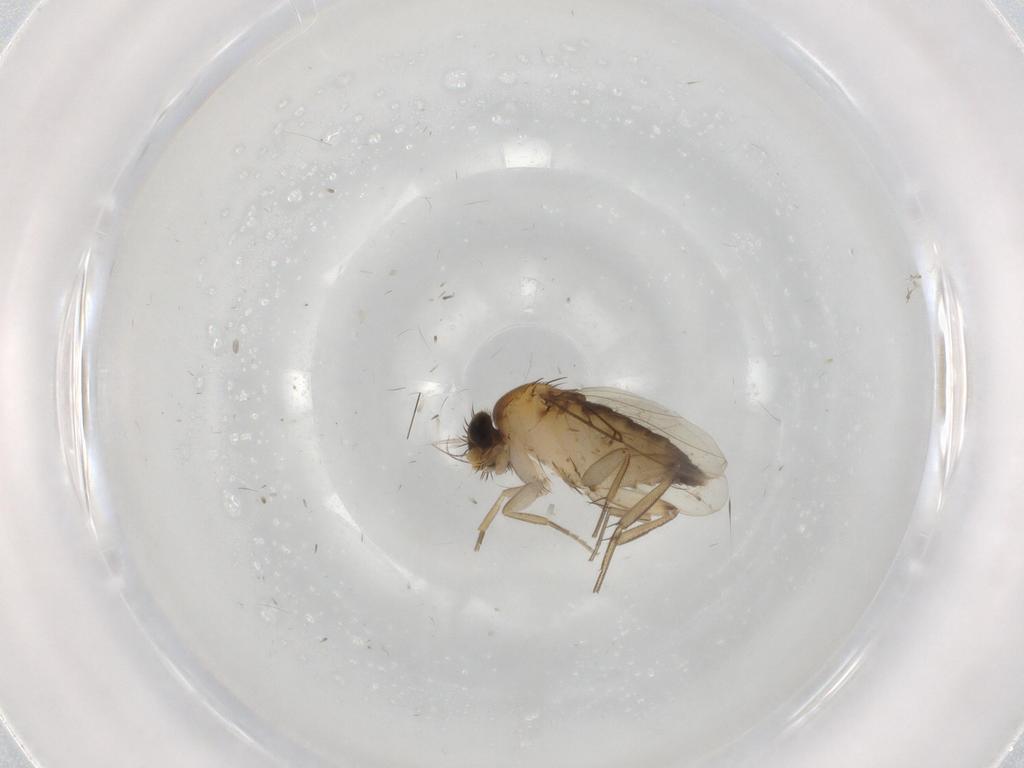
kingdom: Animalia
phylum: Arthropoda
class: Insecta
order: Diptera
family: Phoridae
